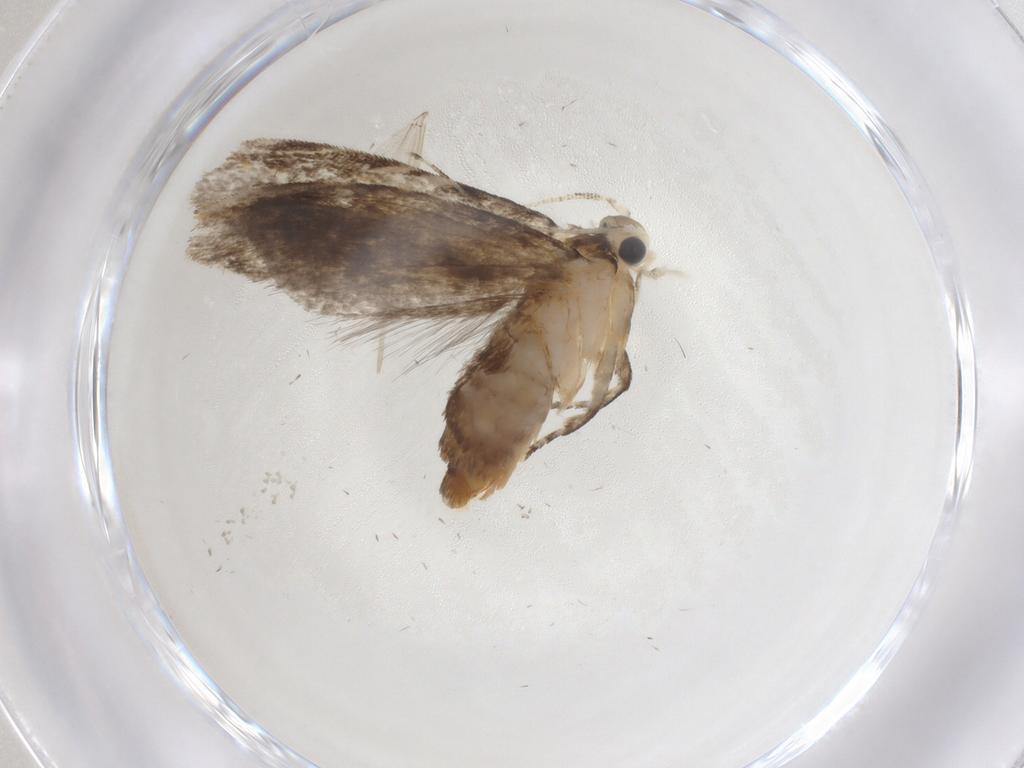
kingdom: Animalia
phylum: Arthropoda
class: Insecta
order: Lepidoptera
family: Tineidae
